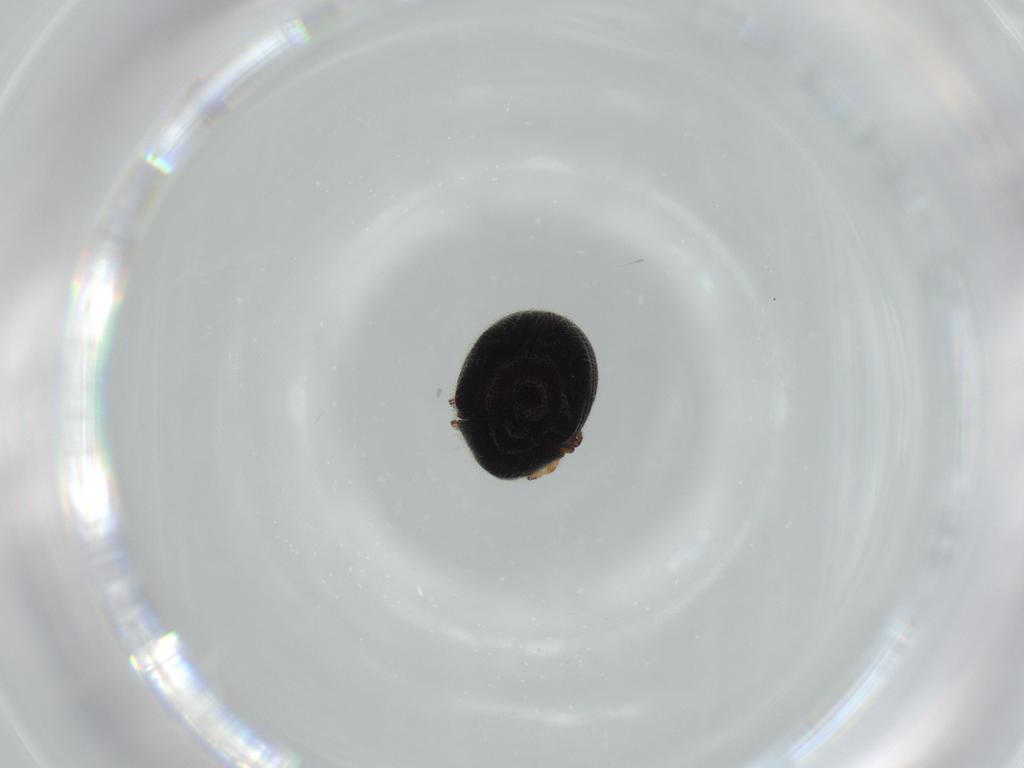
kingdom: Animalia
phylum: Arthropoda
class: Insecta
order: Coleoptera
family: Ptinidae
